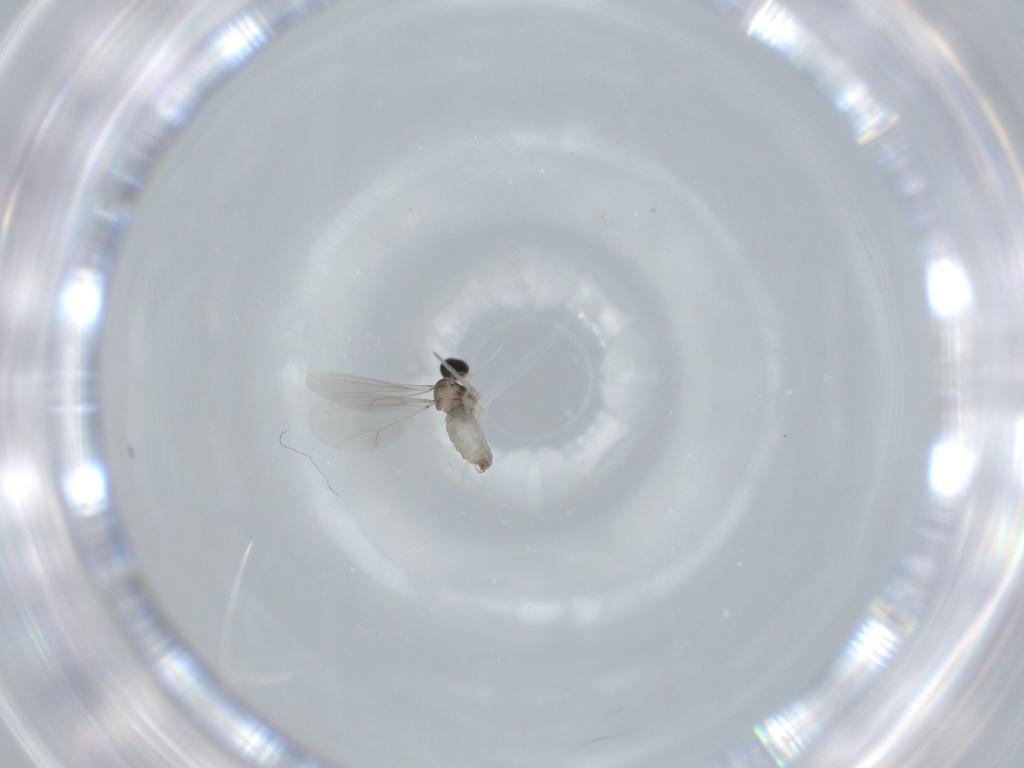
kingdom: Animalia
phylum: Arthropoda
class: Insecta
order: Diptera
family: Cecidomyiidae
